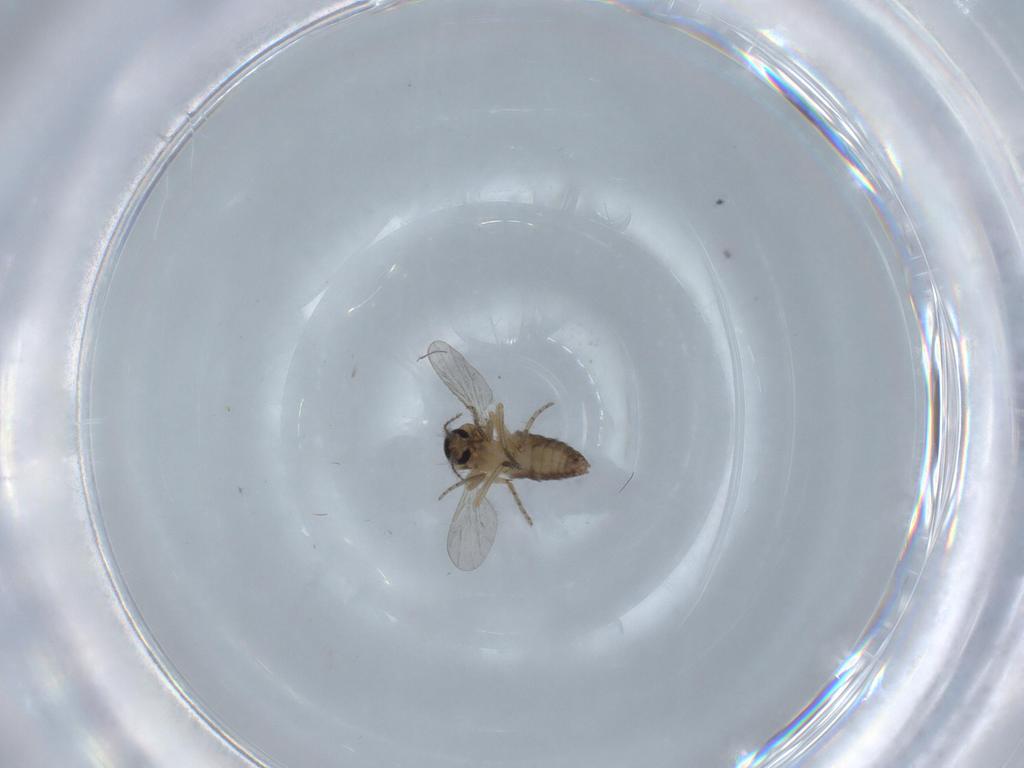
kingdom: Animalia
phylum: Arthropoda
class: Insecta
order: Diptera
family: Ceratopogonidae
